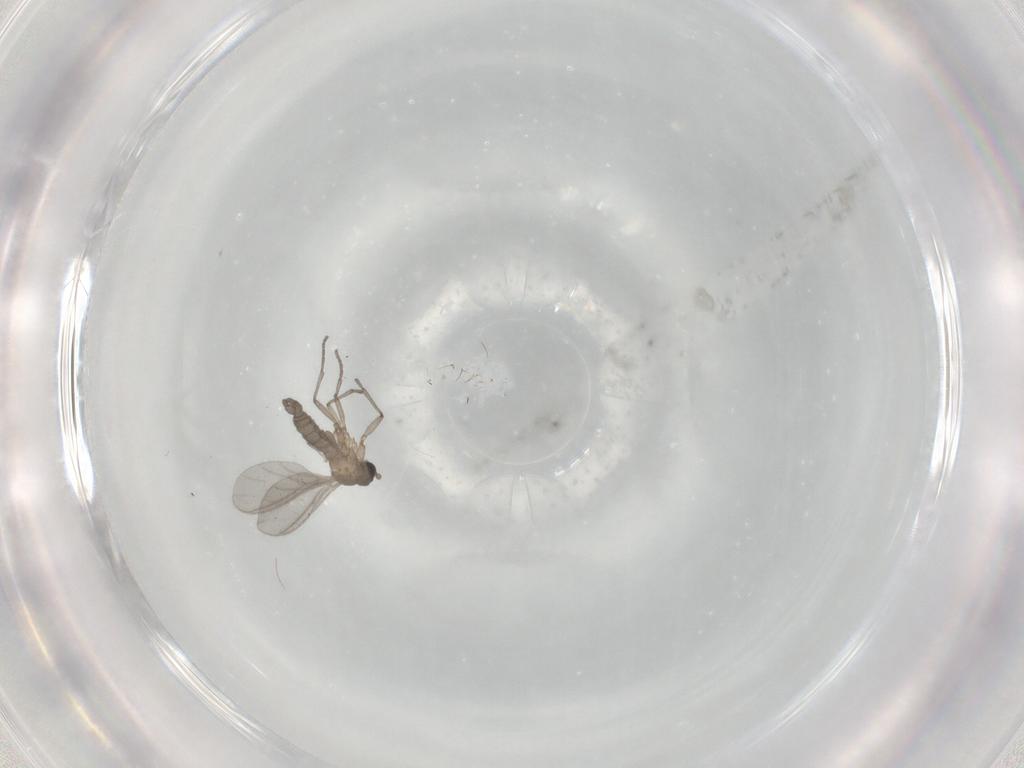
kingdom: Animalia
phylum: Arthropoda
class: Insecta
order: Diptera
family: Sciaridae
